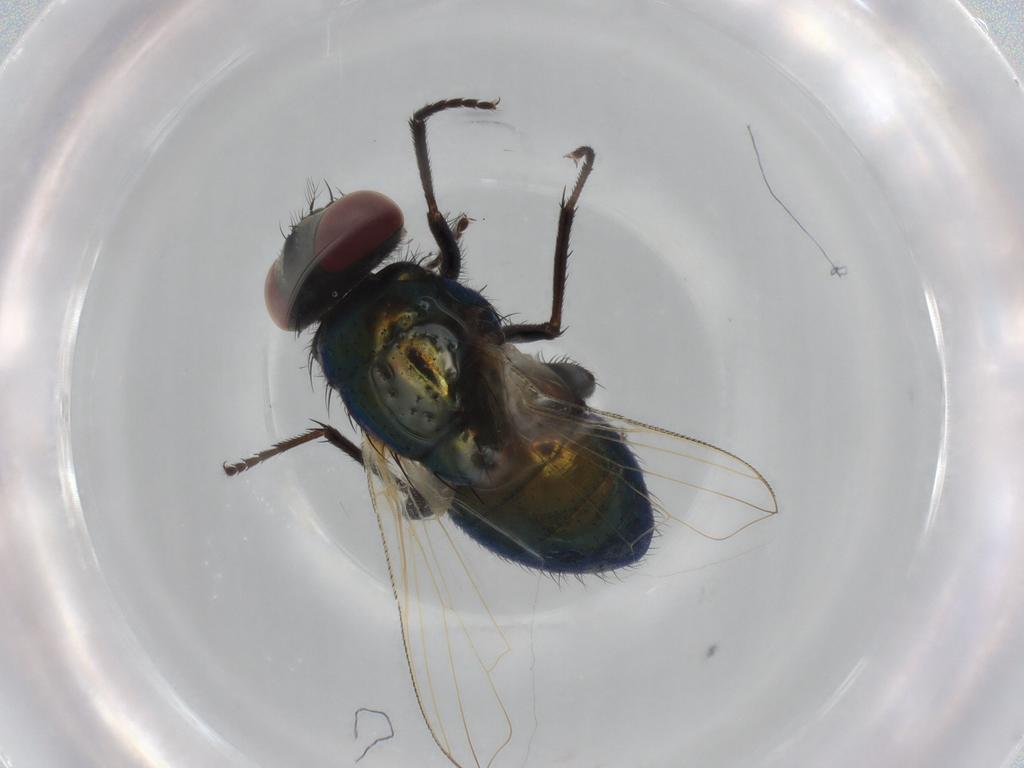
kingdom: Animalia
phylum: Arthropoda
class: Insecta
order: Diptera
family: Muscidae
